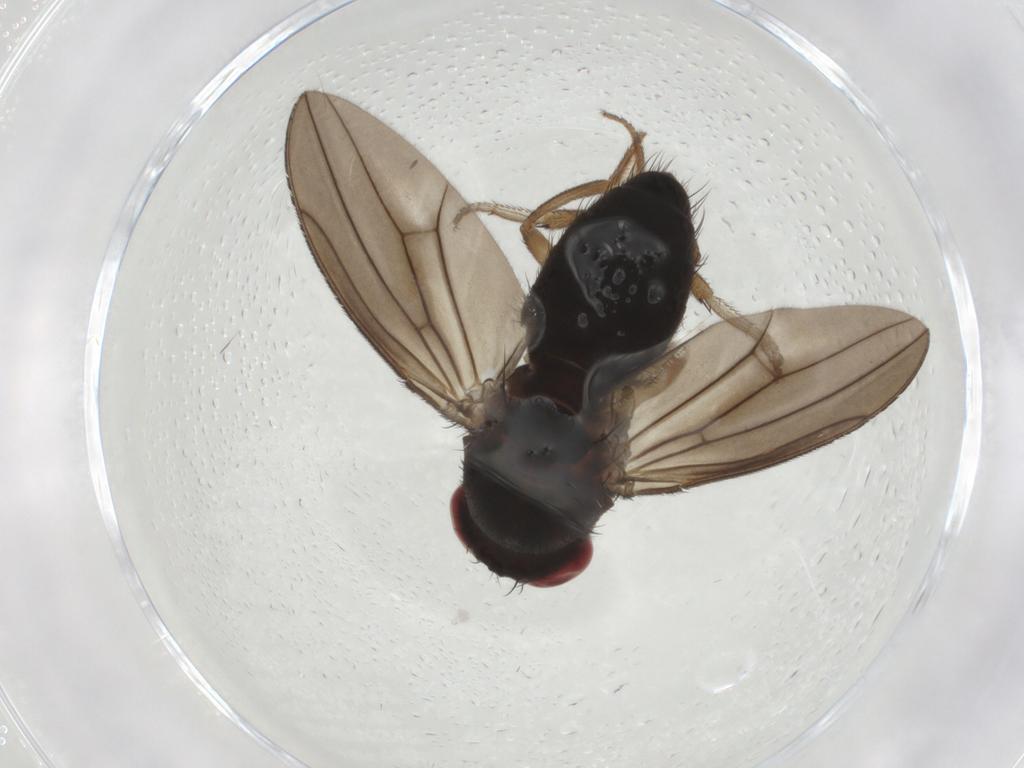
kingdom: Animalia
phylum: Arthropoda
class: Insecta
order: Diptera
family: Drosophilidae
